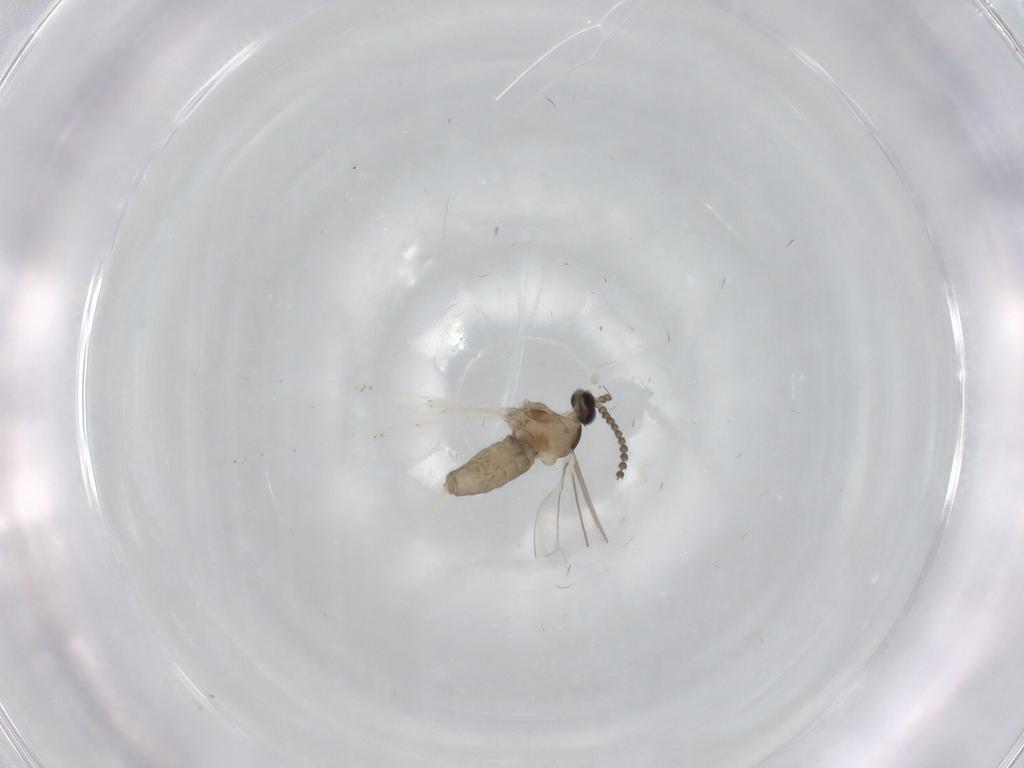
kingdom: Animalia
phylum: Arthropoda
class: Insecta
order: Diptera
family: Cecidomyiidae
